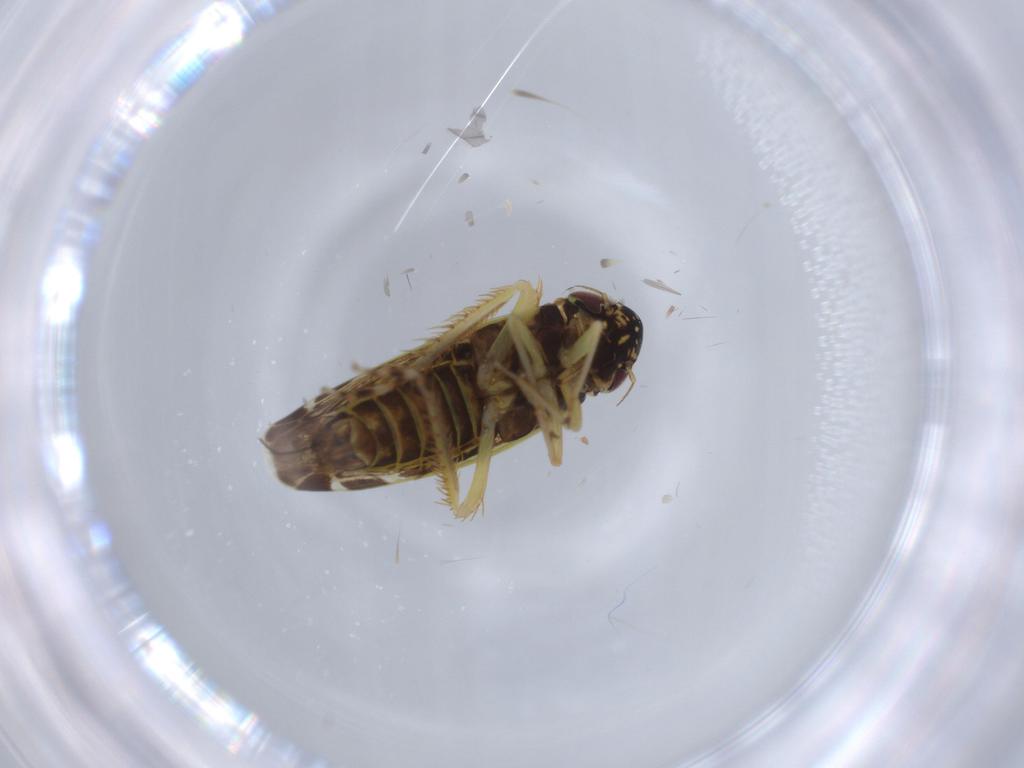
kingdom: Animalia
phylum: Arthropoda
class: Insecta
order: Hemiptera
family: Cicadellidae
